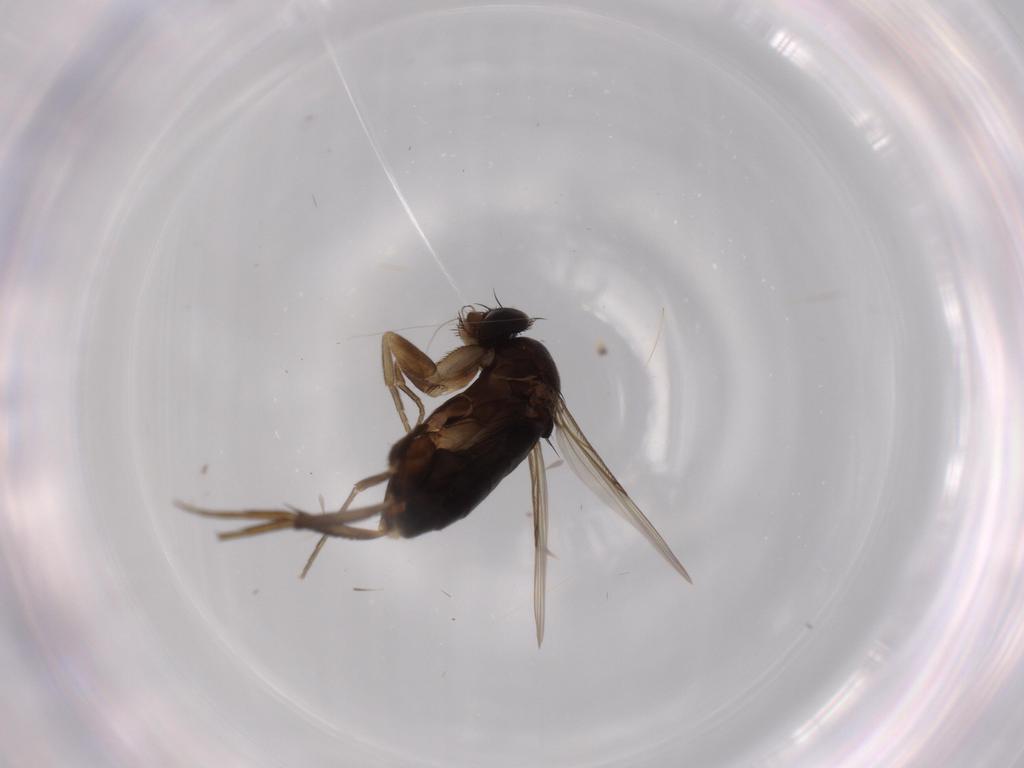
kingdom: Animalia
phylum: Arthropoda
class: Insecta
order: Diptera
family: Phoridae
